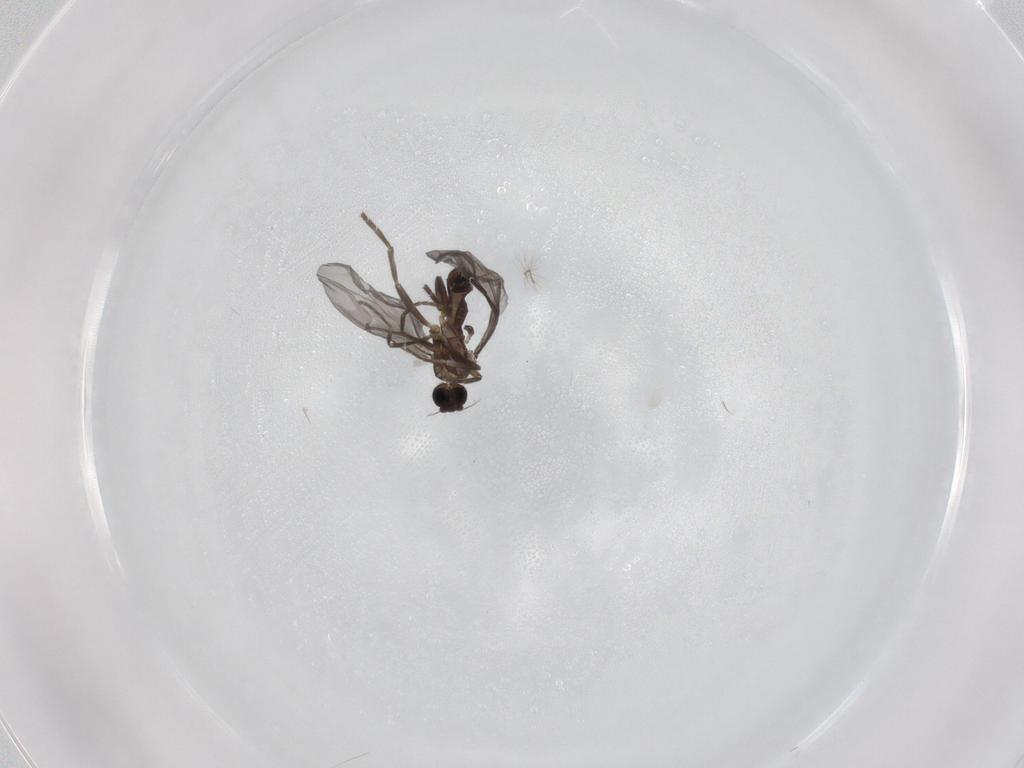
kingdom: Animalia
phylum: Arthropoda
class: Insecta
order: Diptera
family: Phoridae
